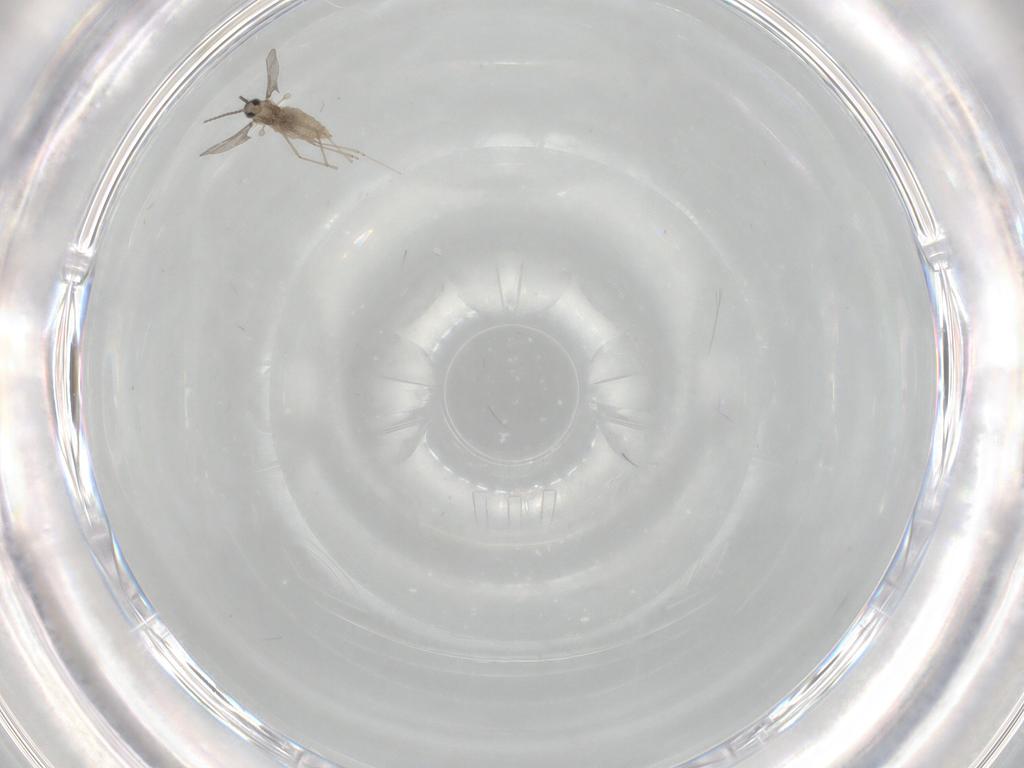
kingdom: Animalia
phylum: Arthropoda
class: Insecta
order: Diptera
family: Cecidomyiidae
